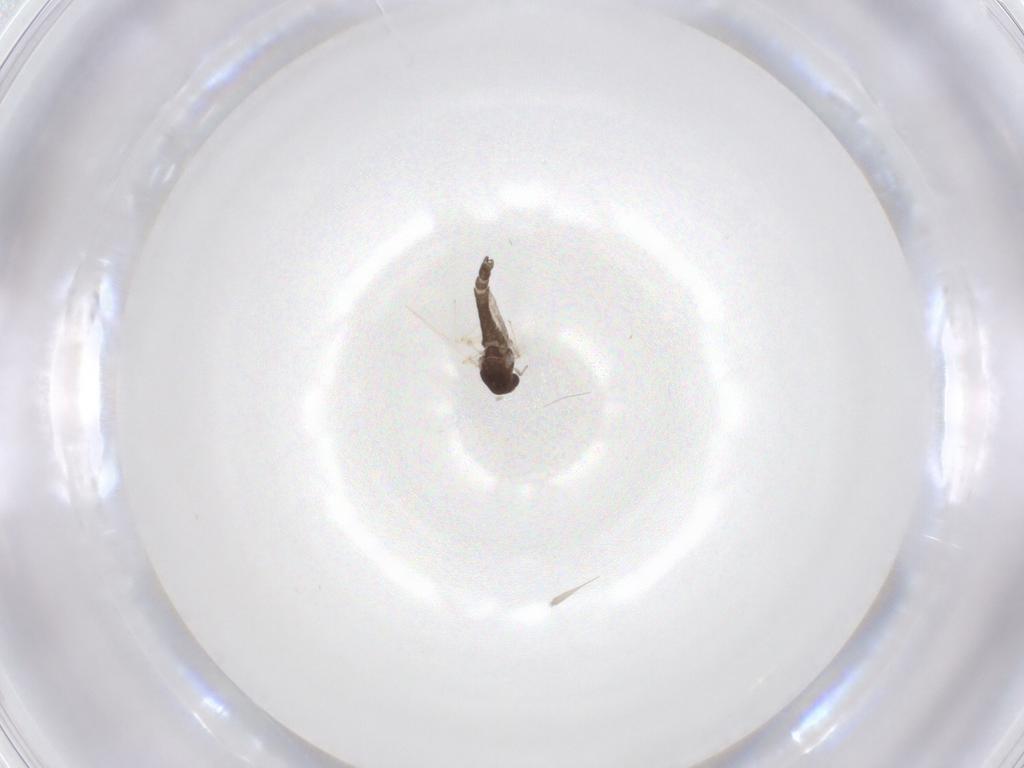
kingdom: Animalia
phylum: Arthropoda
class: Insecta
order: Diptera
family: Chironomidae
